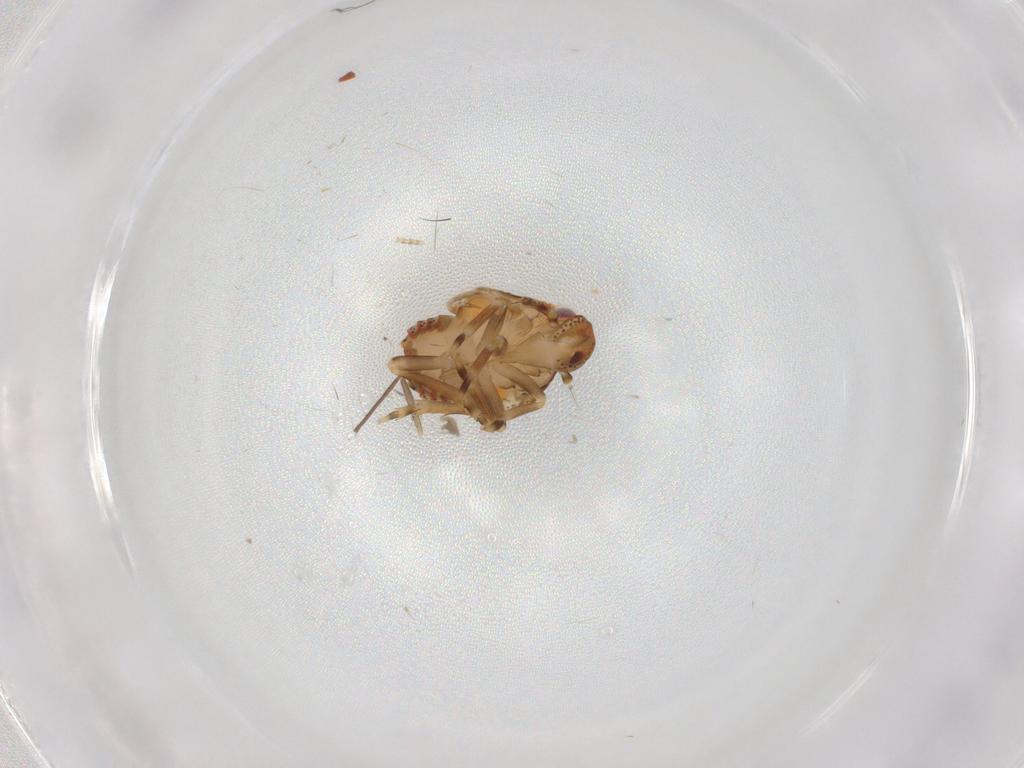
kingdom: Animalia
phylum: Arthropoda
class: Insecta
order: Hemiptera
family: Flatidae
